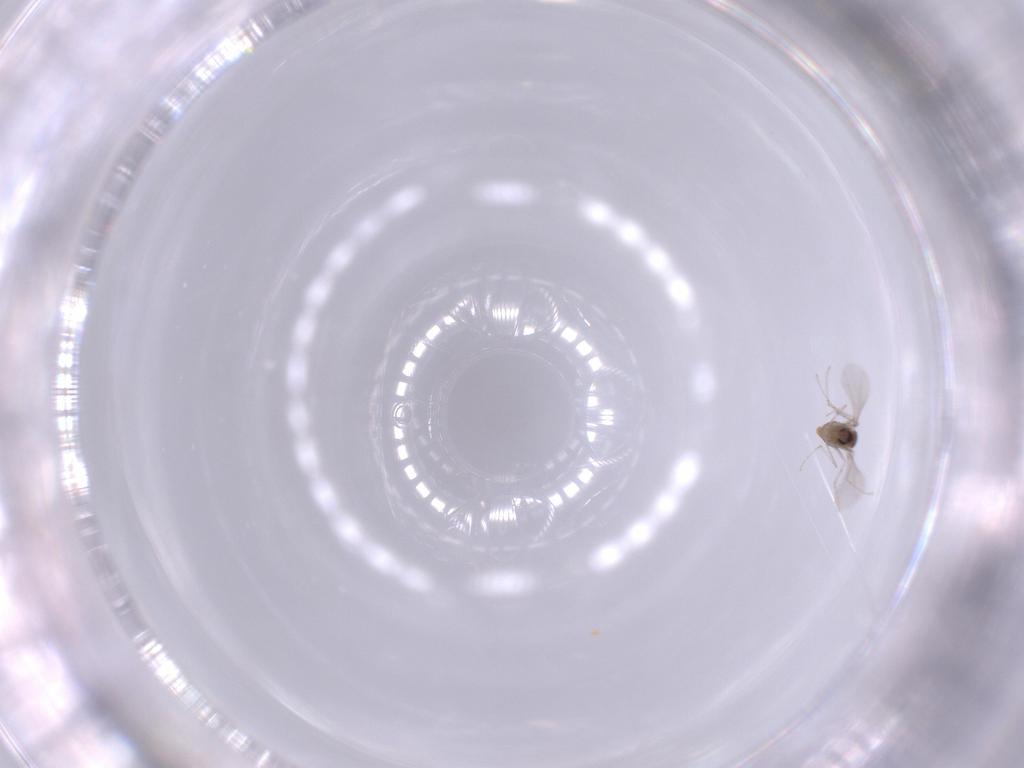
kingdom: Animalia
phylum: Arthropoda
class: Insecta
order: Diptera
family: Cecidomyiidae
